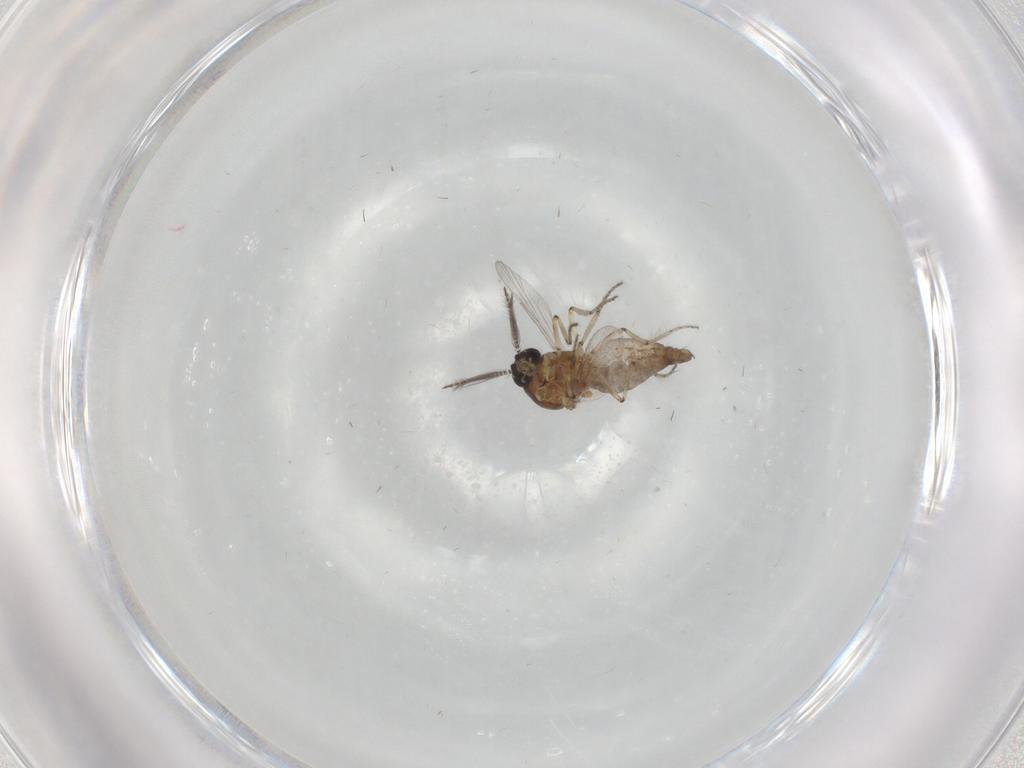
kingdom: Animalia
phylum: Arthropoda
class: Insecta
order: Diptera
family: Ceratopogonidae
